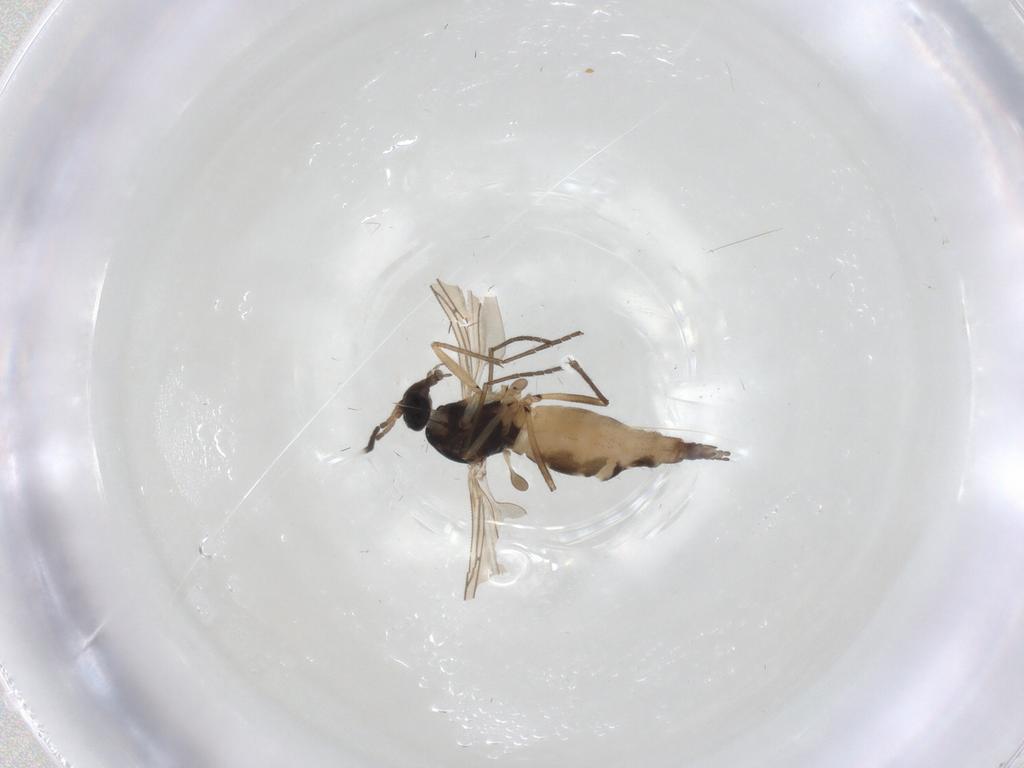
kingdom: Animalia
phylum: Arthropoda
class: Insecta
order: Diptera
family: Sciaridae
